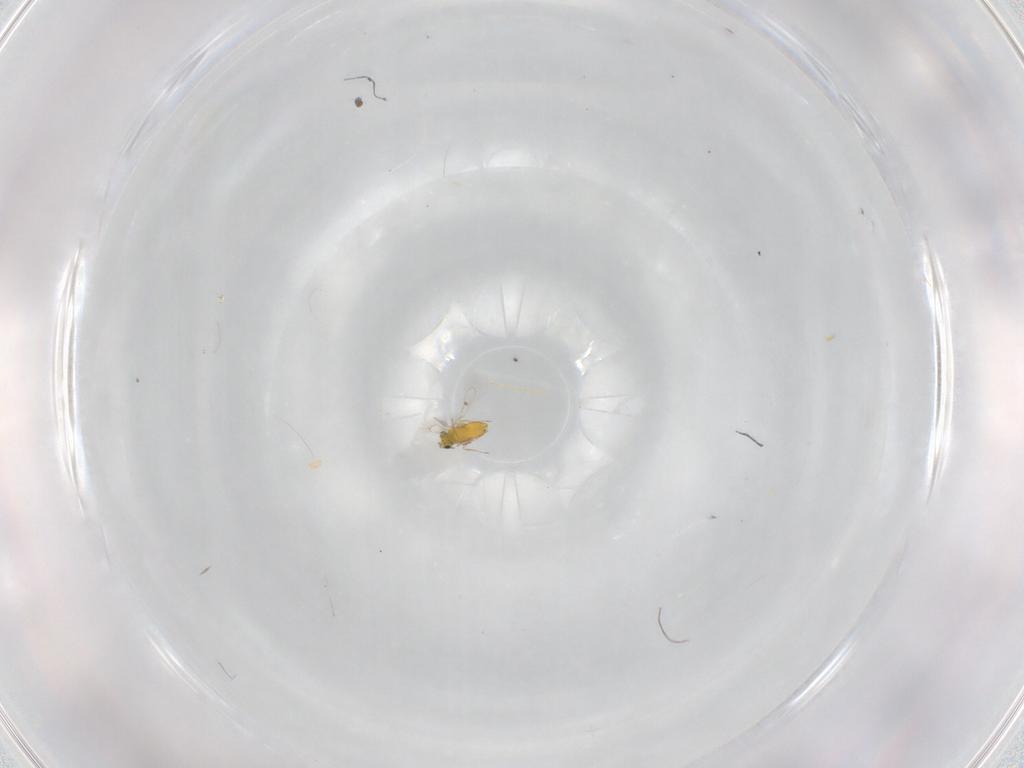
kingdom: Animalia
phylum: Arthropoda
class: Insecta
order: Hymenoptera
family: Trichogrammatidae
